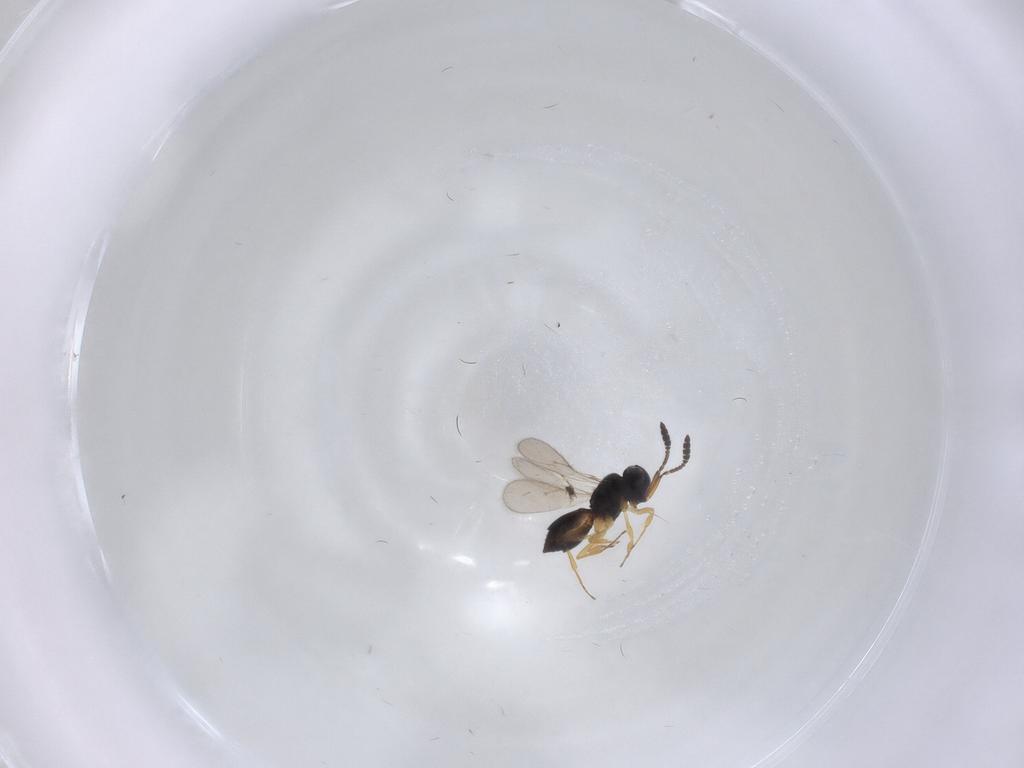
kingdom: Animalia
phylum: Arthropoda
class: Insecta
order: Hymenoptera
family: Scelionidae
